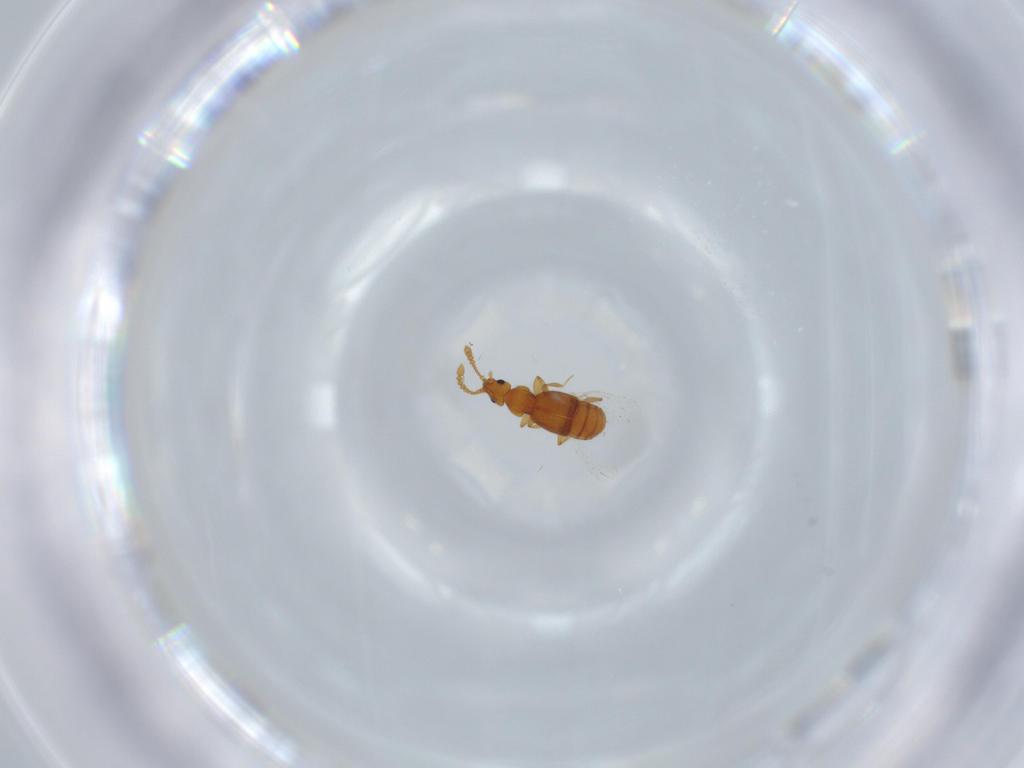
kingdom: Animalia
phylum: Arthropoda
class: Insecta
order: Coleoptera
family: Staphylinidae
